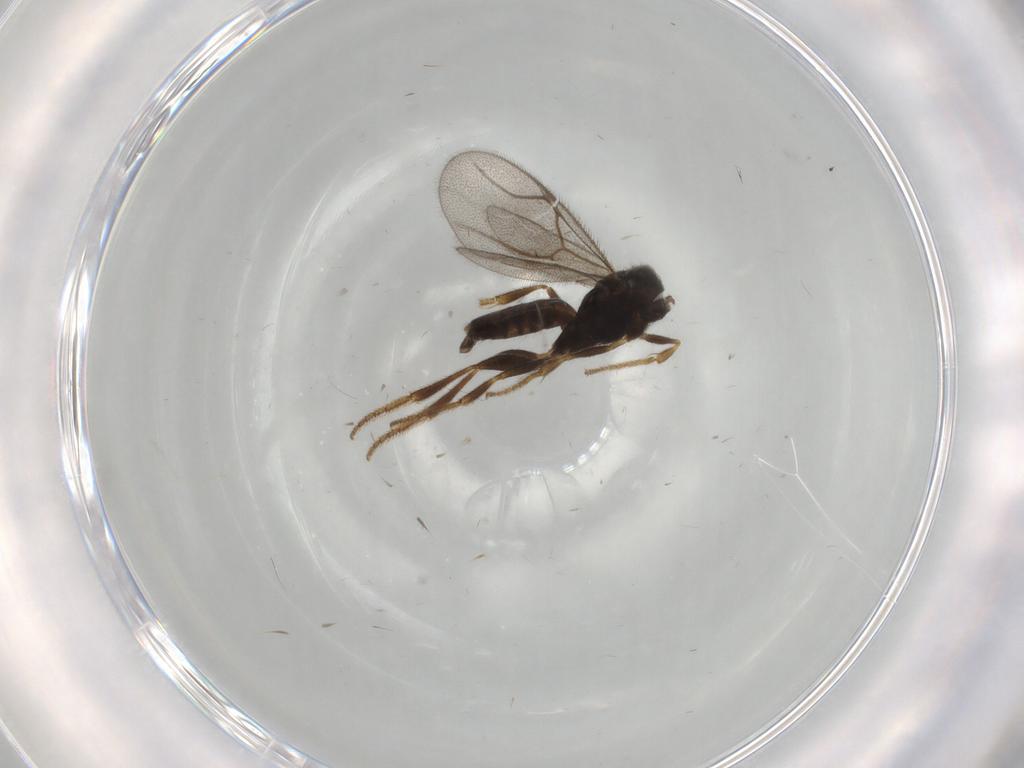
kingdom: Animalia
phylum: Arthropoda
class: Insecta
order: Hymenoptera
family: Dryinidae
